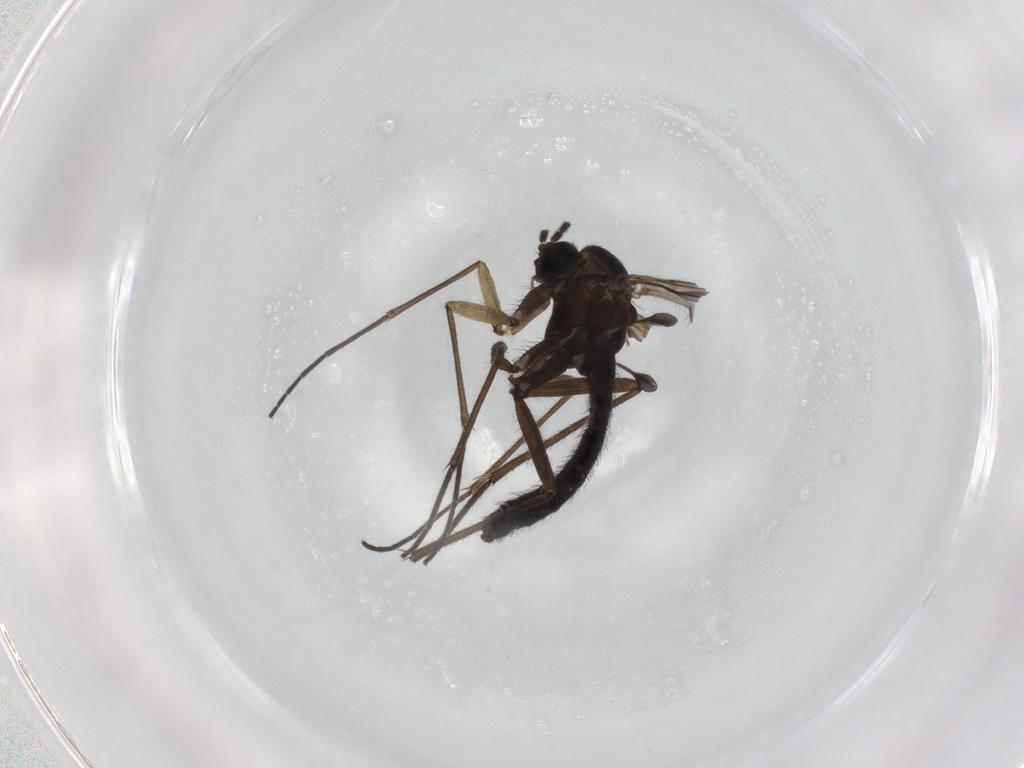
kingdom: Animalia
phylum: Arthropoda
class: Insecta
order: Diptera
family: Sciaridae
